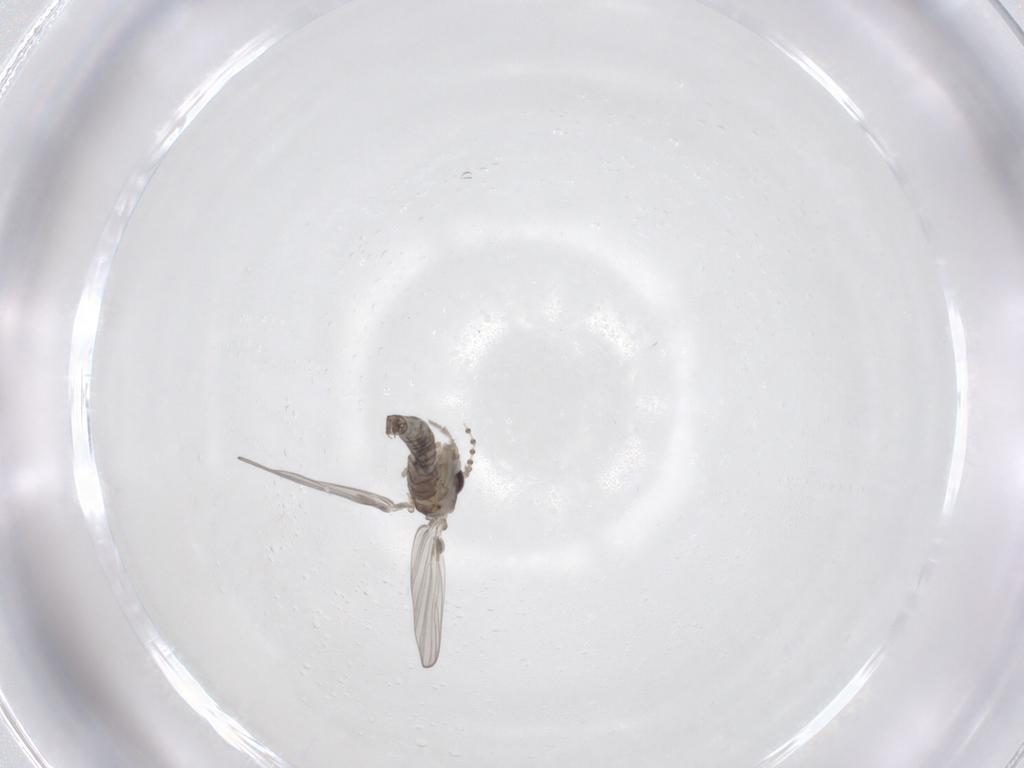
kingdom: Animalia
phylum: Arthropoda
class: Insecta
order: Diptera
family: Psychodidae
